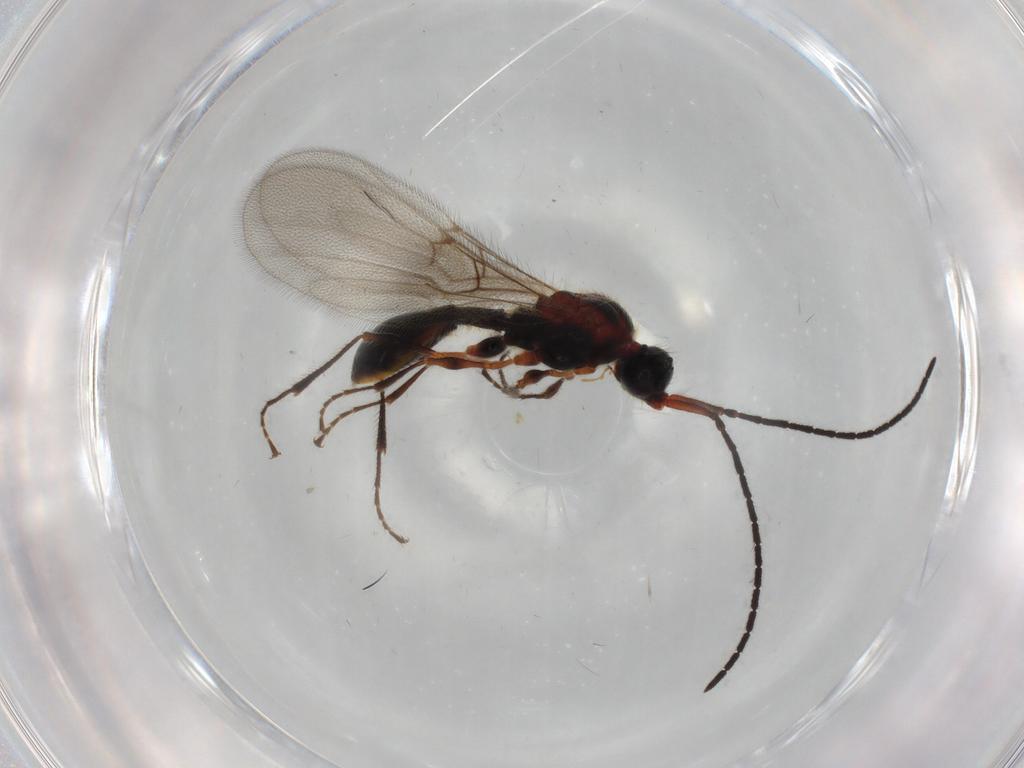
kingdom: Animalia
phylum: Arthropoda
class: Insecta
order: Hymenoptera
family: Diapriidae
